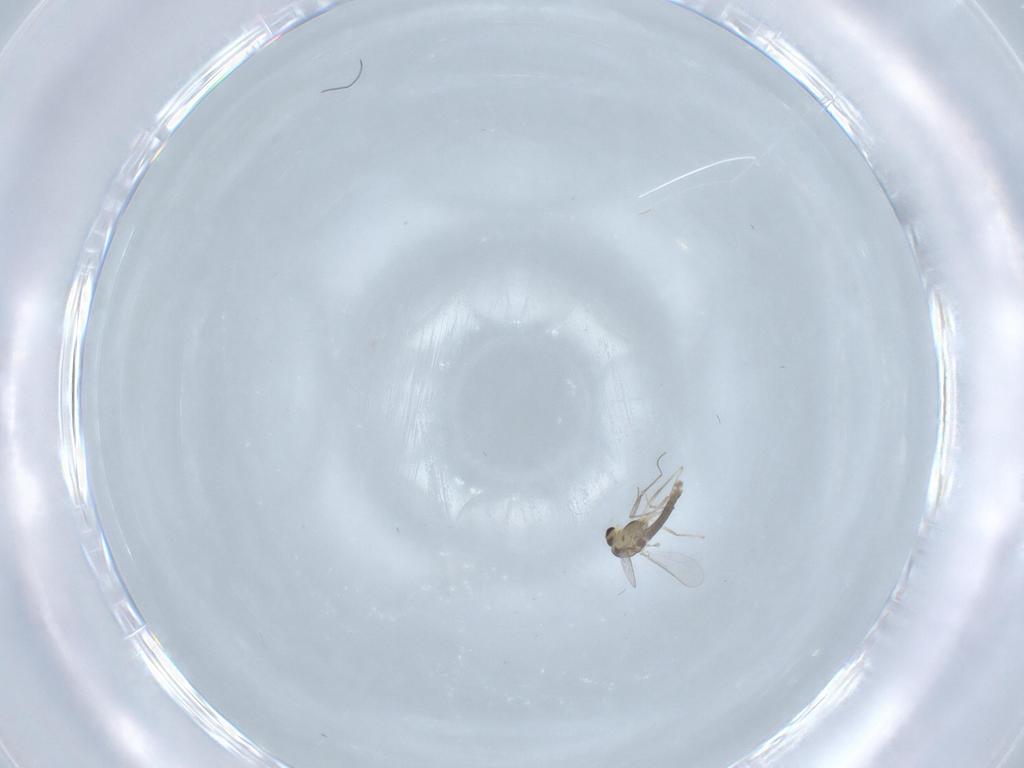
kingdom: Animalia
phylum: Arthropoda
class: Insecta
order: Diptera
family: Chironomidae
